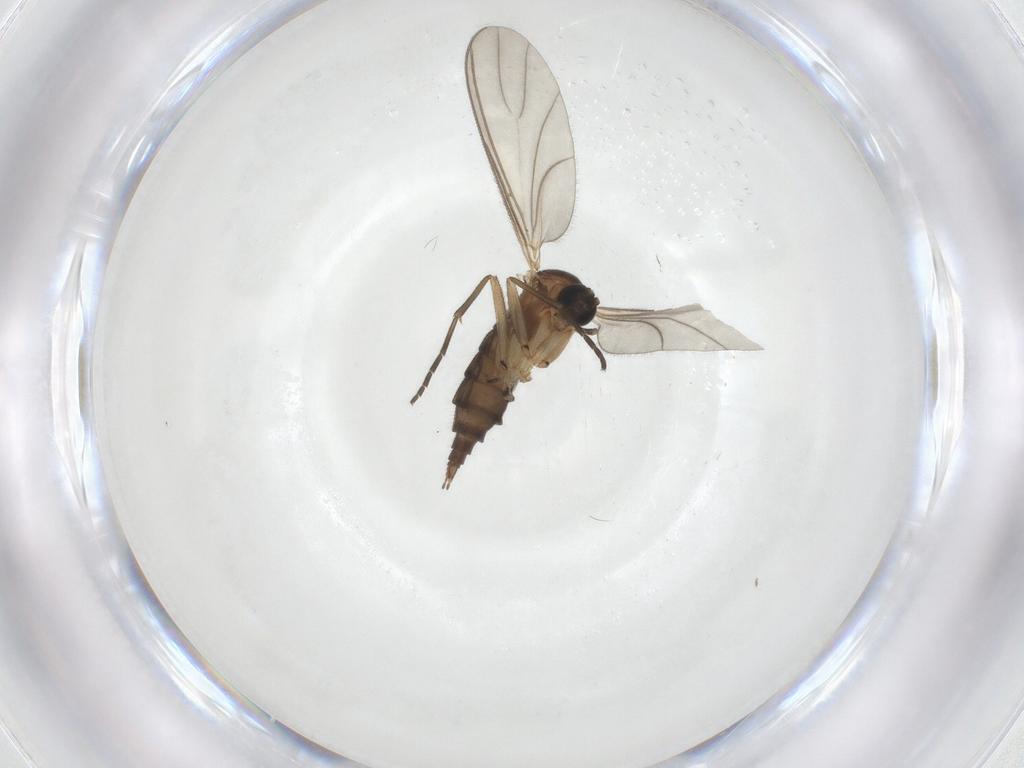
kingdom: Animalia
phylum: Arthropoda
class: Insecta
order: Diptera
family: Sciaridae
